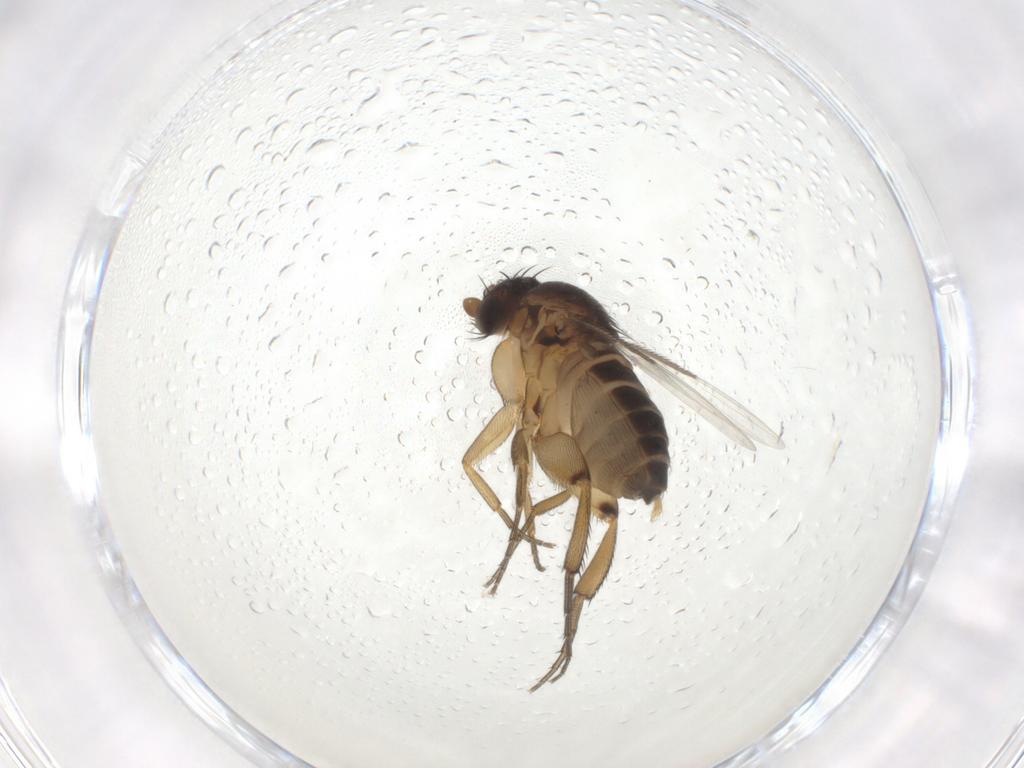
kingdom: Animalia
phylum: Arthropoda
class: Insecta
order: Diptera
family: Phoridae
